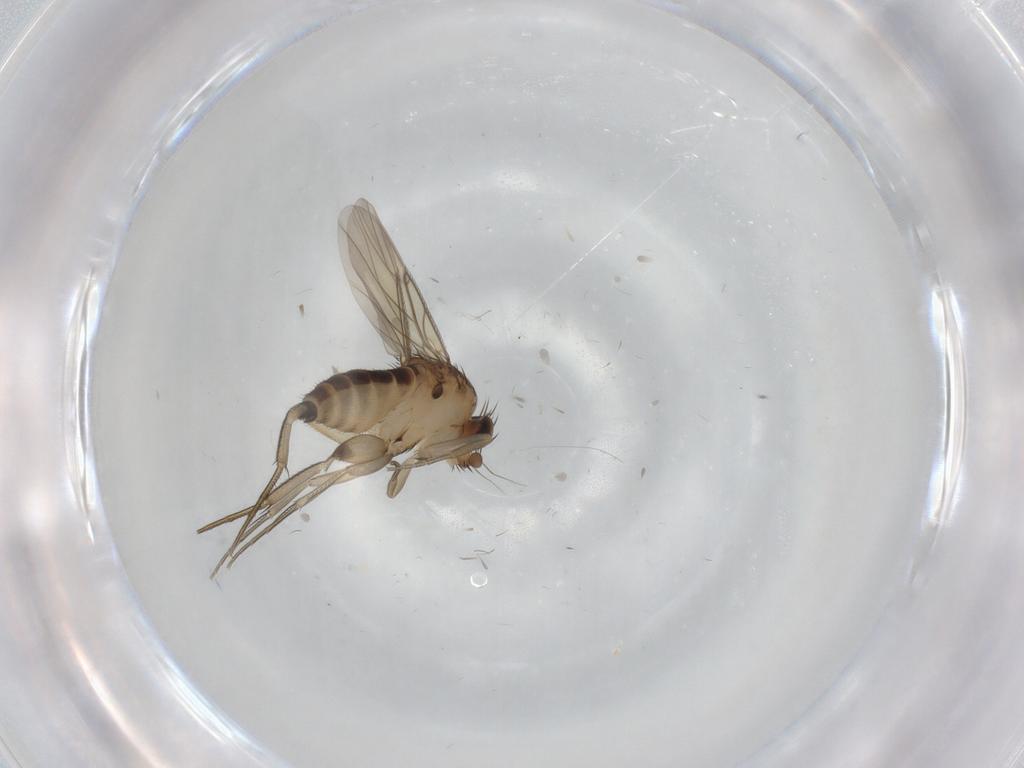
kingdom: Animalia
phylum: Arthropoda
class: Insecta
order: Diptera
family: Phoridae
